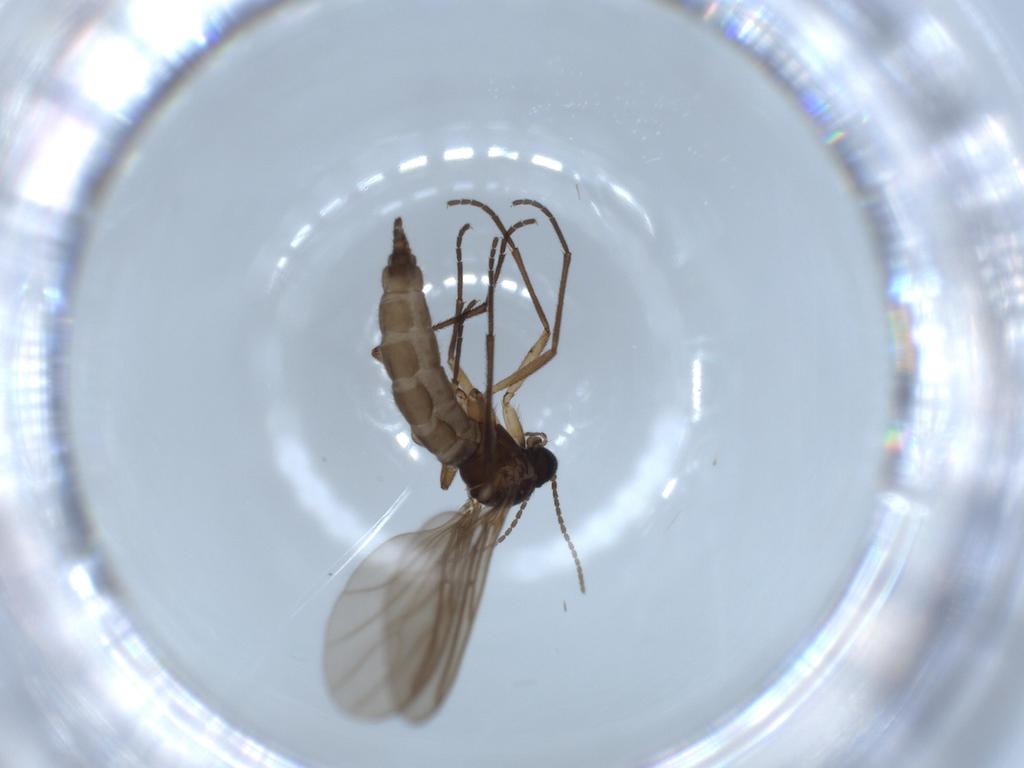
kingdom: Animalia
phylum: Arthropoda
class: Insecta
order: Diptera
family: Sciaridae
